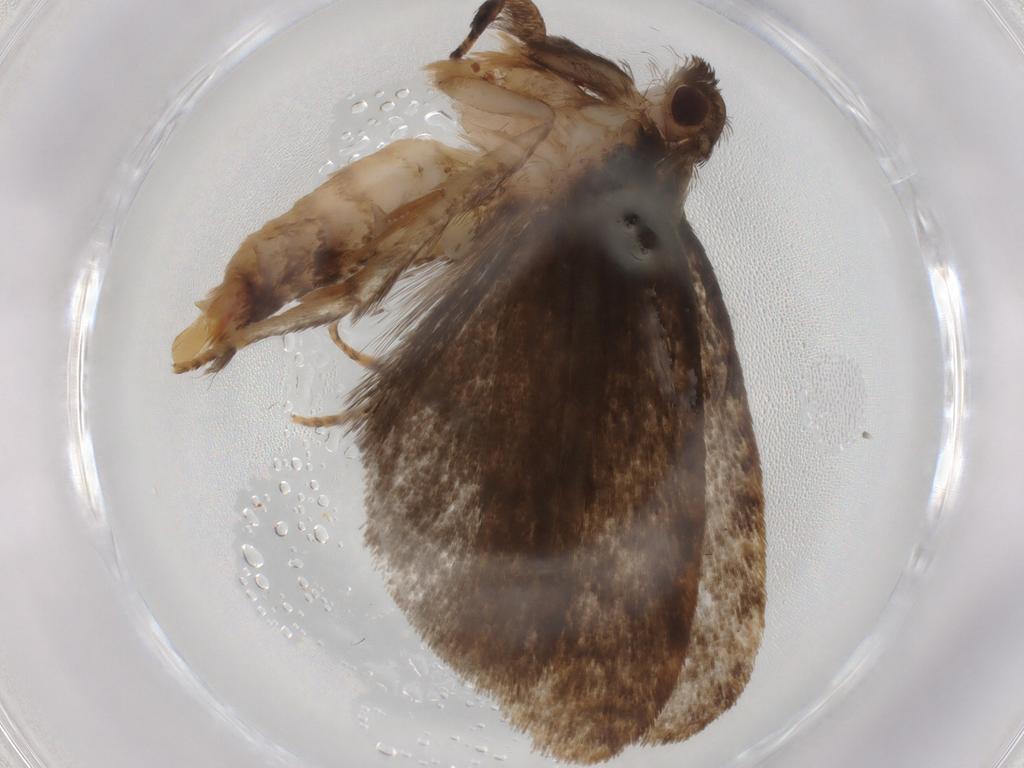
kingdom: Animalia
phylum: Arthropoda
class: Insecta
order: Lepidoptera
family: Tineidae
